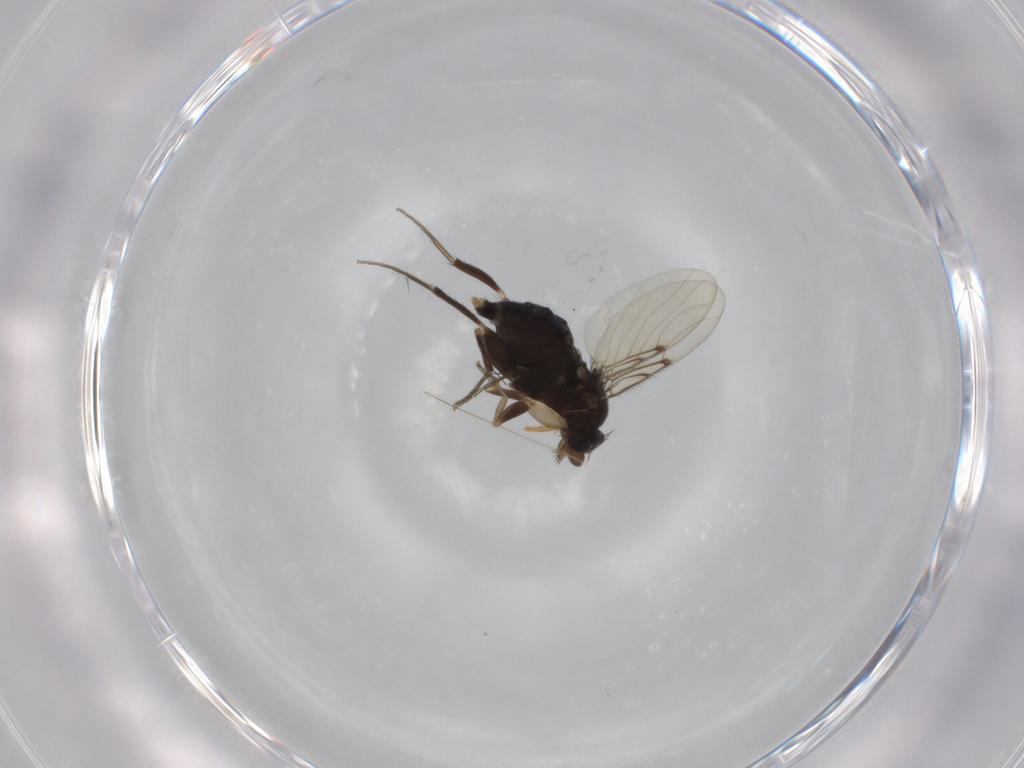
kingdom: Animalia
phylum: Arthropoda
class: Insecta
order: Diptera
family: Phoridae
